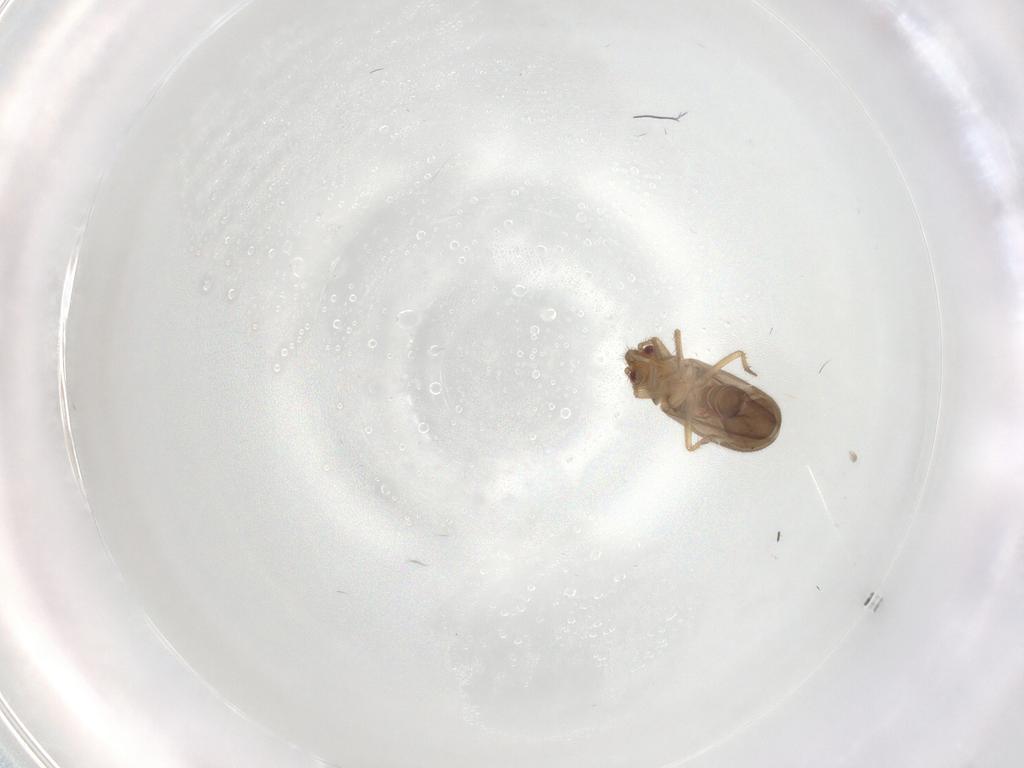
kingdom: Animalia
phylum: Arthropoda
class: Insecta
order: Hemiptera
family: Ceratocombidae
